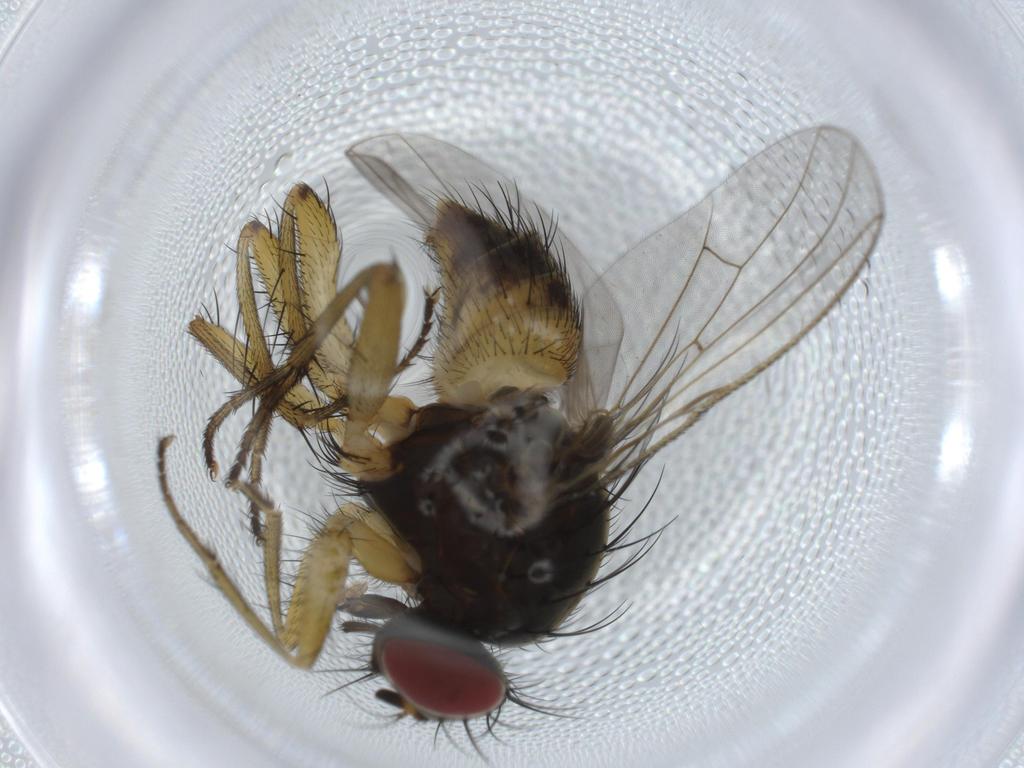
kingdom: Animalia
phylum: Arthropoda
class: Insecta
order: Diptera
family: Muscidae
